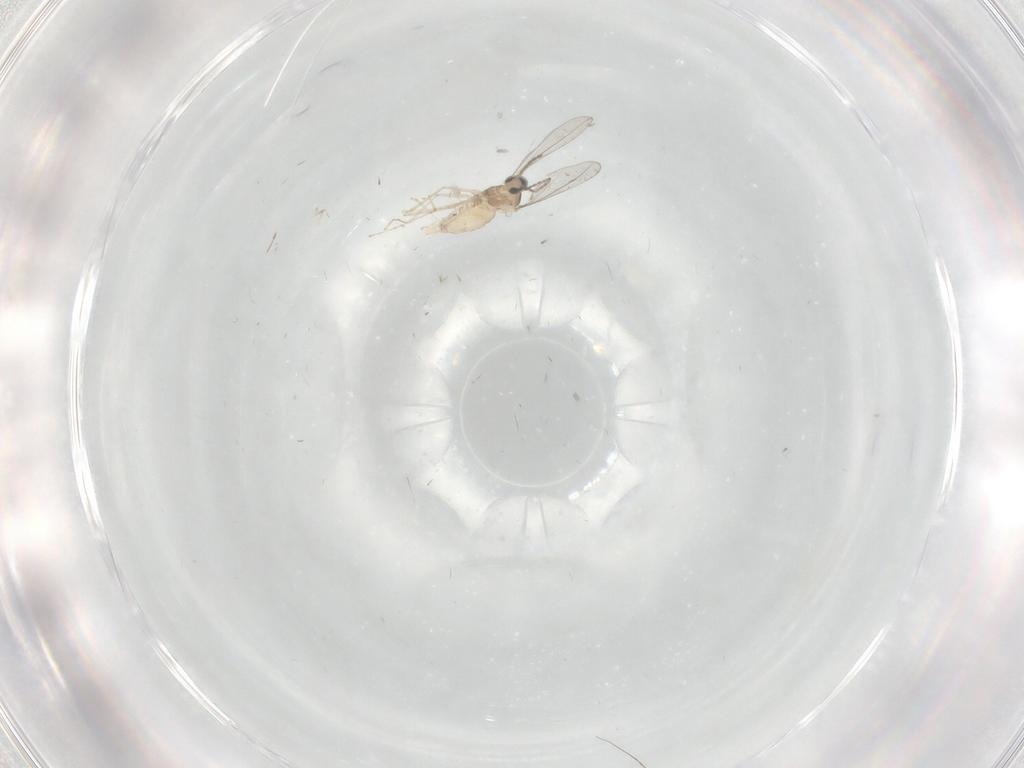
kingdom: Animalia
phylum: Arthropoda
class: Insecta
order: Diptera
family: Cecidomyiidae
